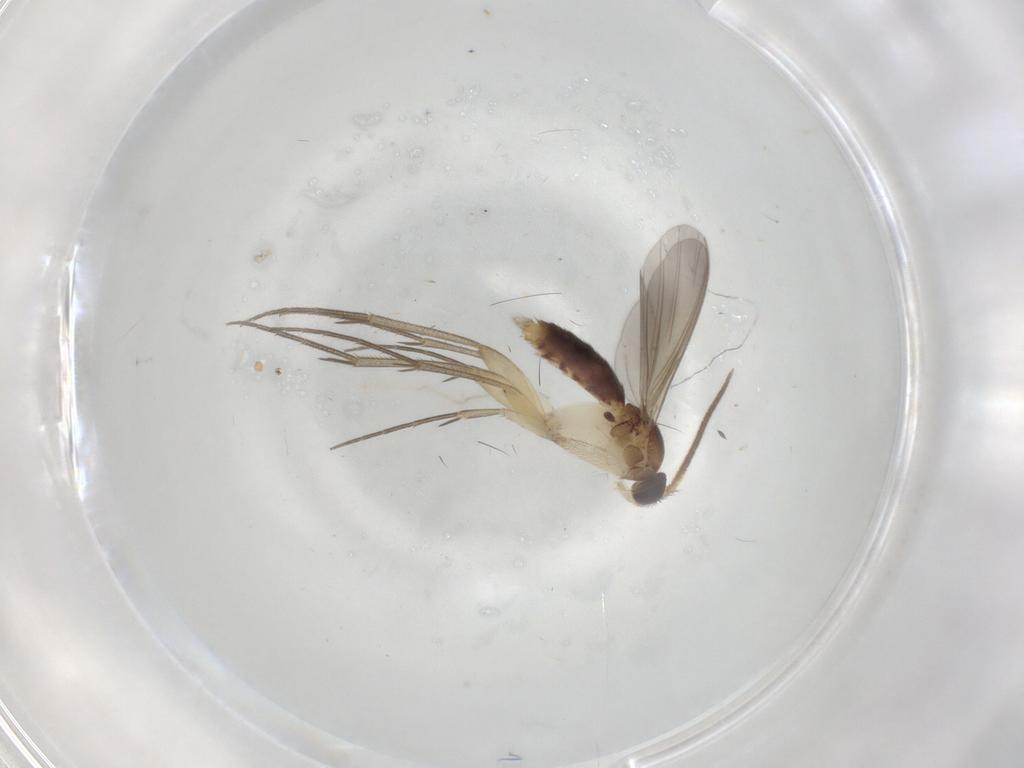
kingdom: Animalia
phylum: Arthropoda
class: Insecta
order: Diptera
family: Mycetophilidae
